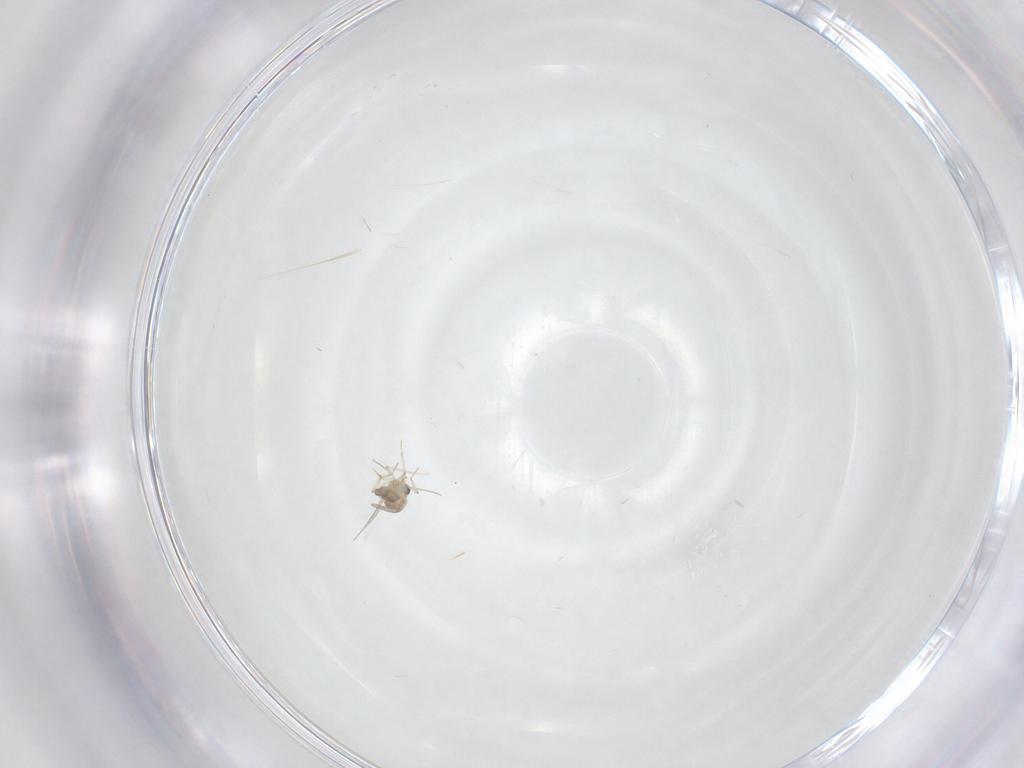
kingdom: Animalia
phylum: Arthropoda
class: Insecta
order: Diptera
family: Ceratopogonidae
